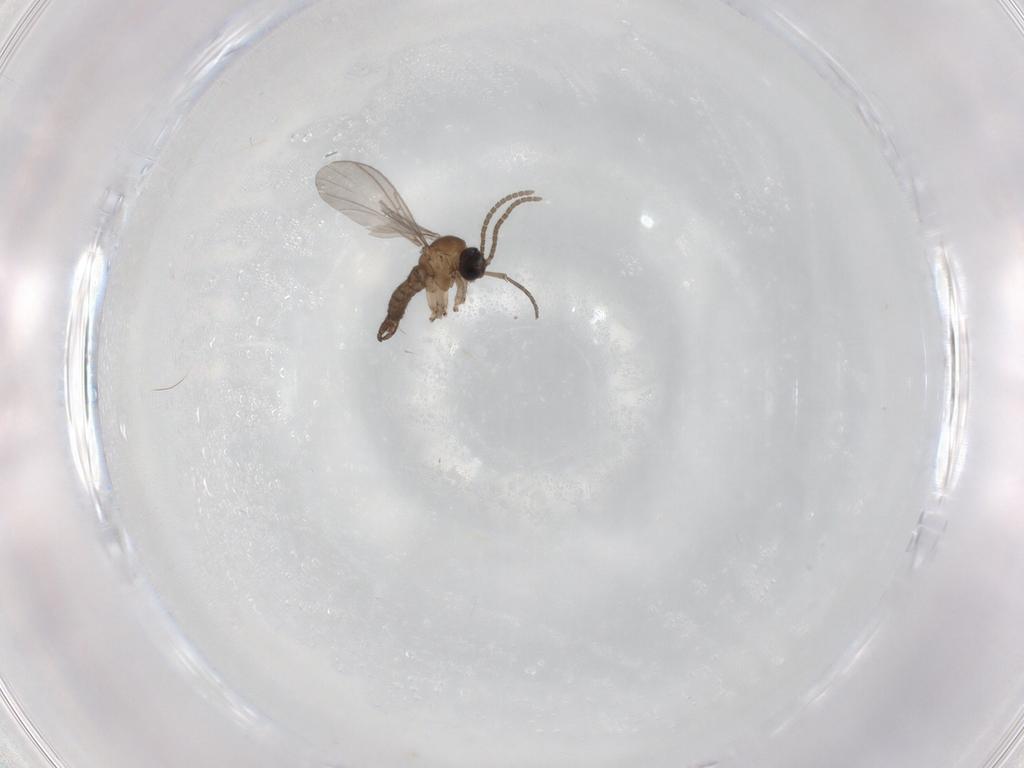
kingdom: Animalia
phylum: Arthropoda
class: Insecta
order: Diptera
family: Sciaridae
